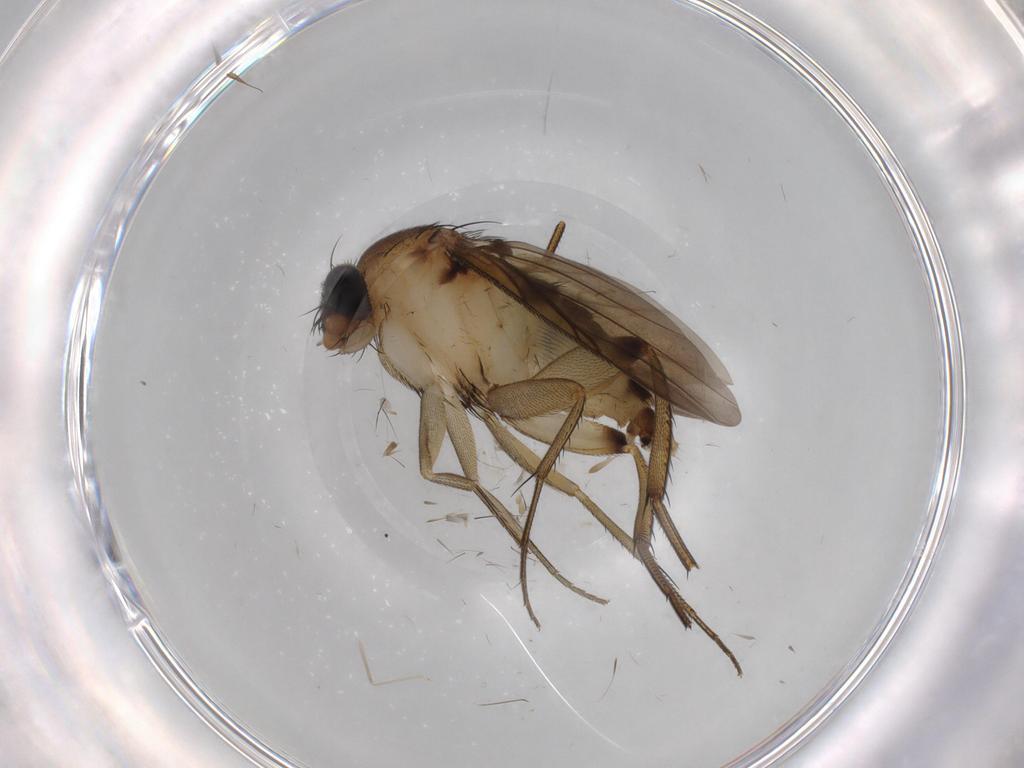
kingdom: Animalia
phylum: Arthropoda
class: Insecta
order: Diptera
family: Phoridae
